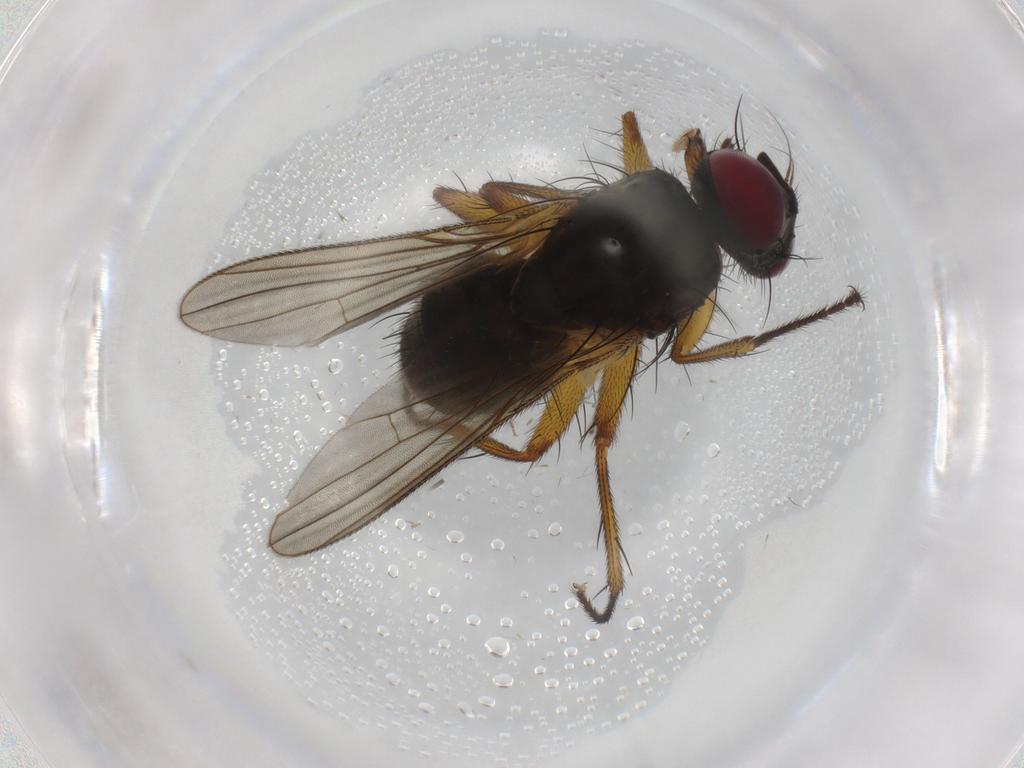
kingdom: Animalia
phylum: Arthropoda
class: Insecta
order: Diptera
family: Muscidae
